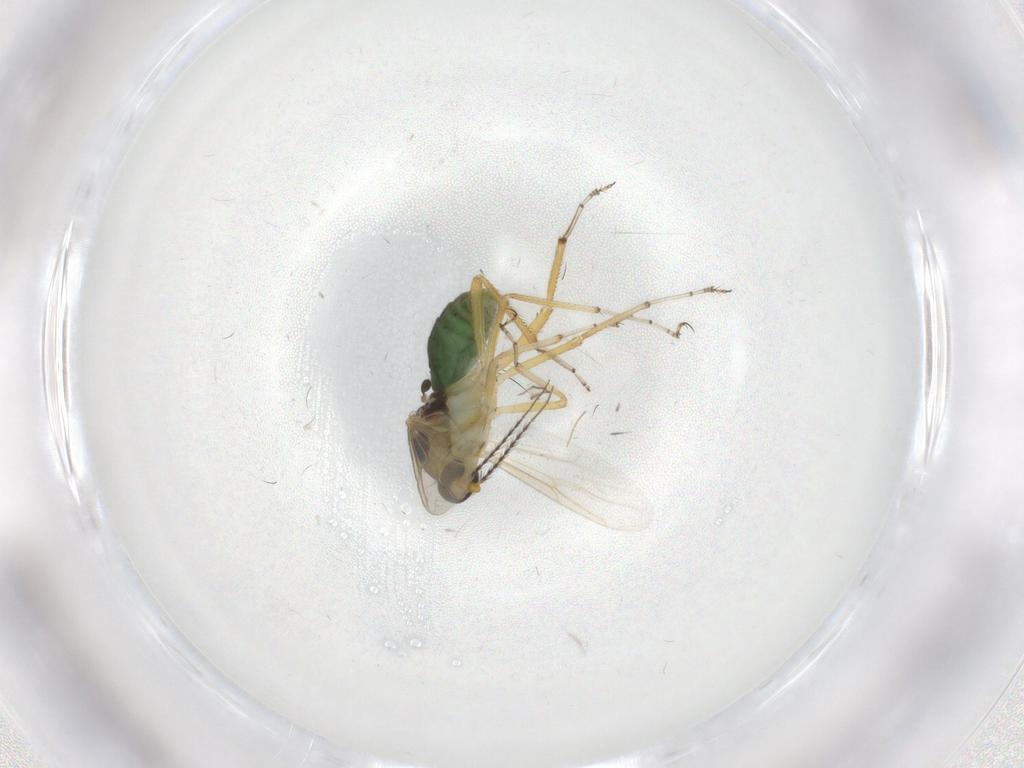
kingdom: Animalia
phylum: Arthropoda
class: Insecta
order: Diptera
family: Ceratopogonidae
